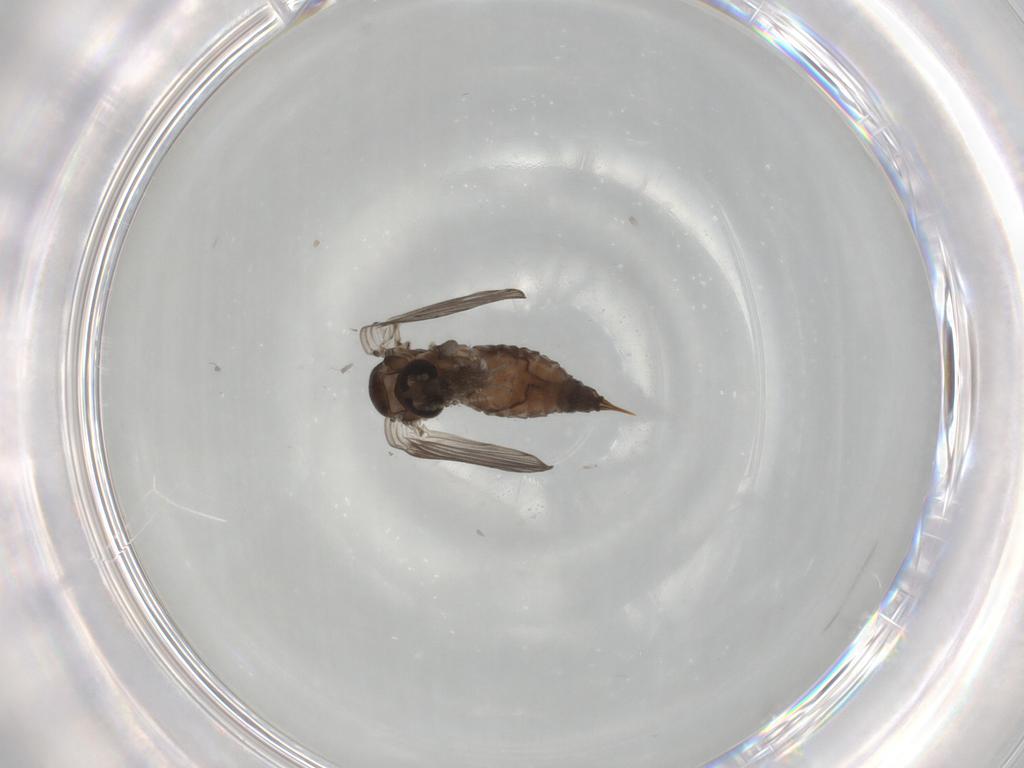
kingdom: Animalia
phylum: Arthropoda
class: Insecta
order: Diptera
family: Psychodidae
